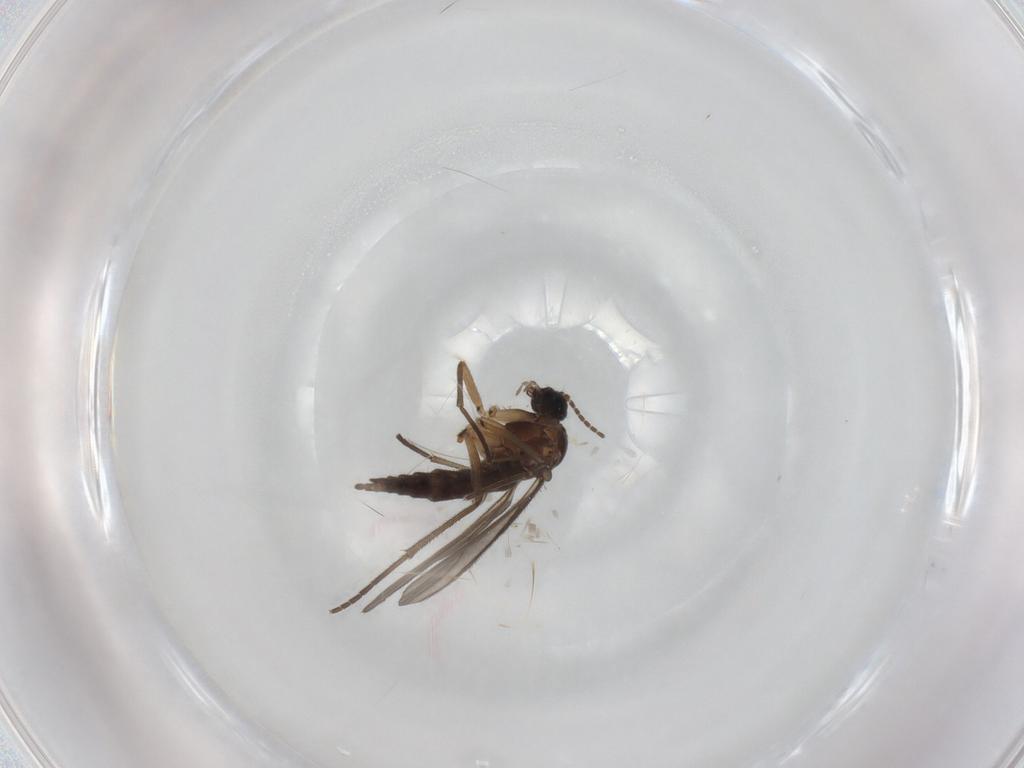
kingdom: Animalia
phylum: Arthropoda
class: Insecta
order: Diptera
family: Sciaridae
